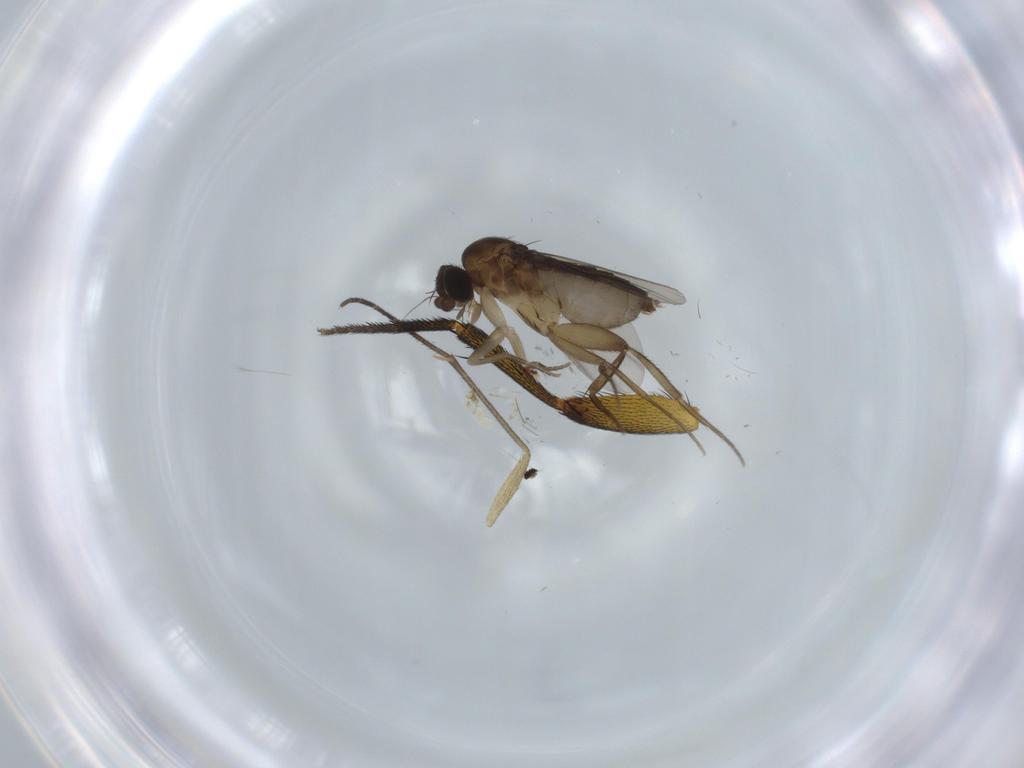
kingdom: Animalia
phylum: Arthropoda
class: Insecta
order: Diptera
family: Phoridae
